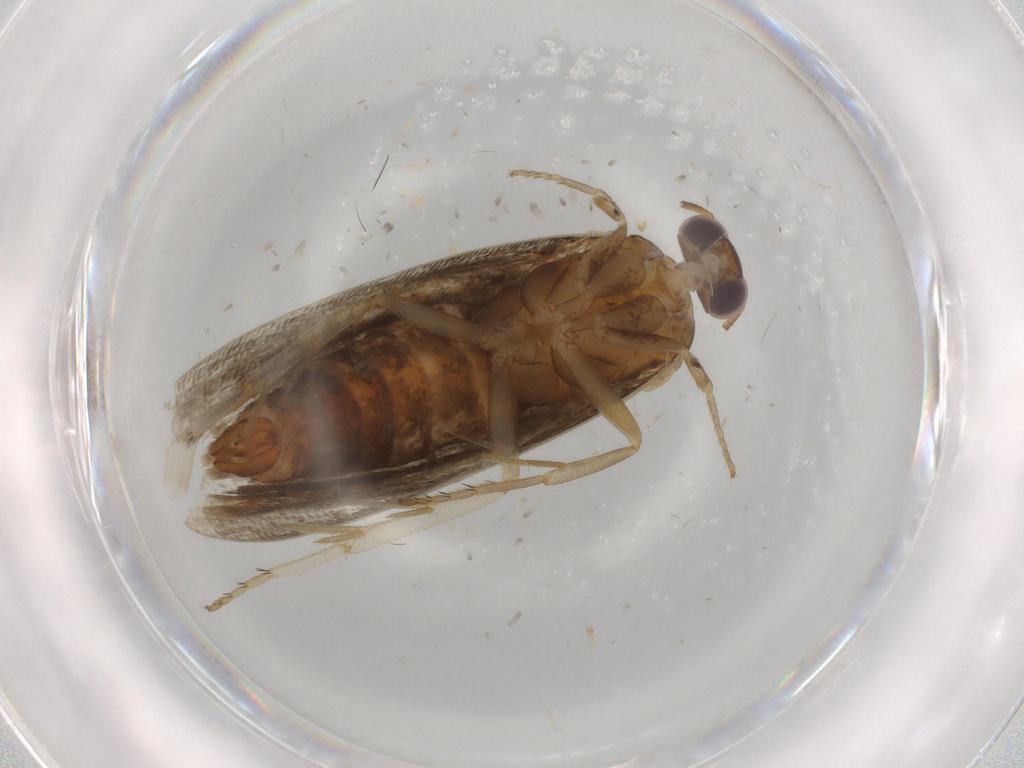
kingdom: Animalia
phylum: Arthropoda
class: Insecta
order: Lepidoptera
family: Tortricidae
